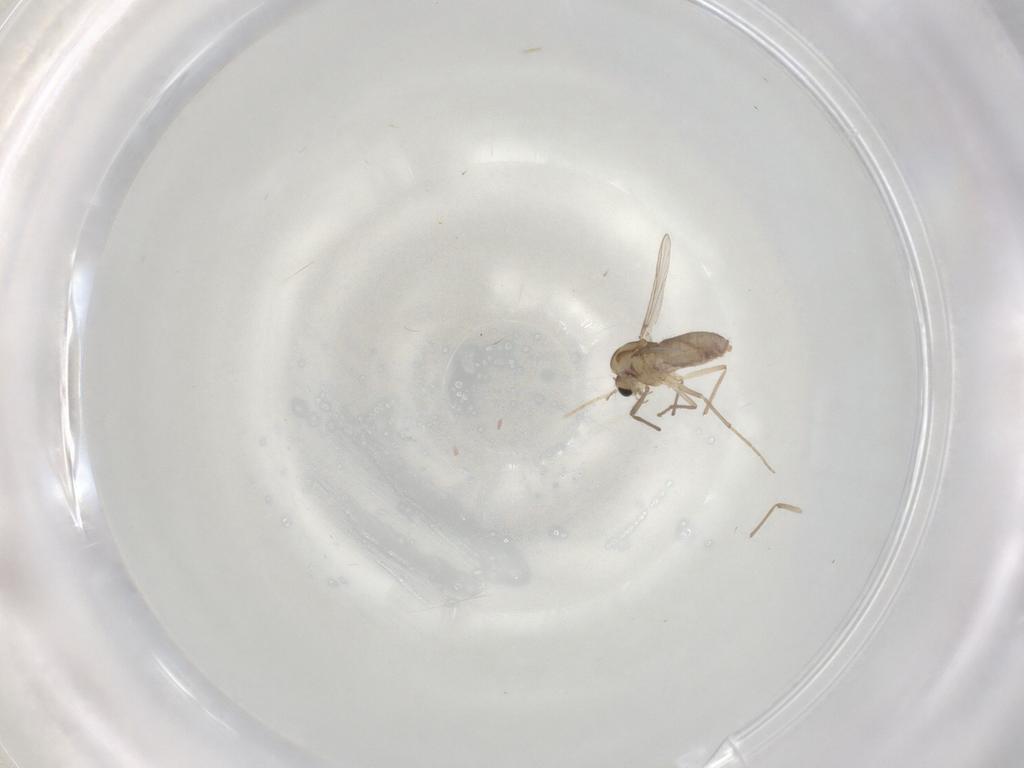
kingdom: Animalia
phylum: Arthropoda
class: Insecta
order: Diptera
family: Chironomidae
